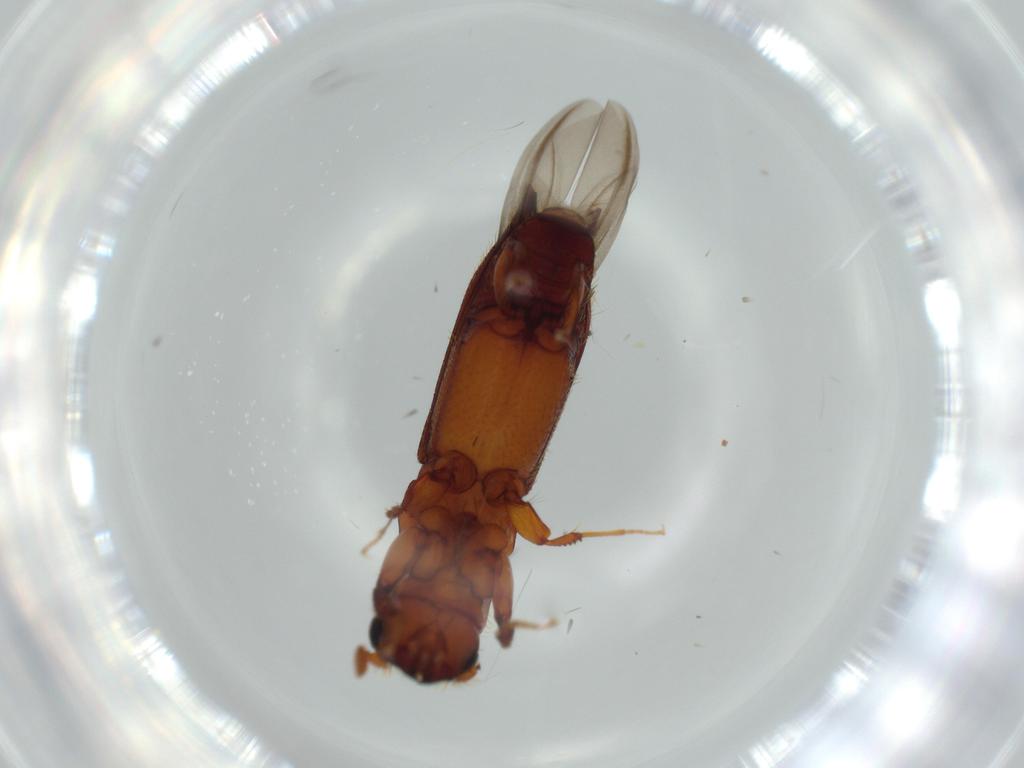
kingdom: Animalia
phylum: Arthropoda
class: Insecta
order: Coleoptera
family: Curculionidae
